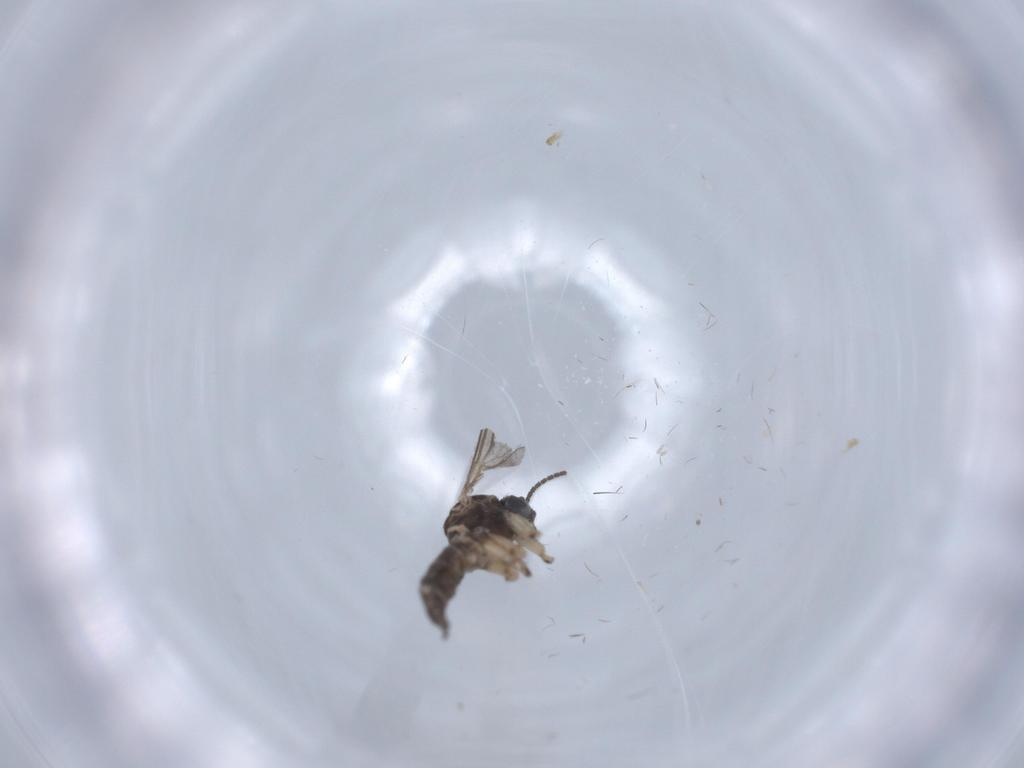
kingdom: Animalia
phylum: Arthropoda
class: Insecta
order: Diptera
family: Sciaridae
